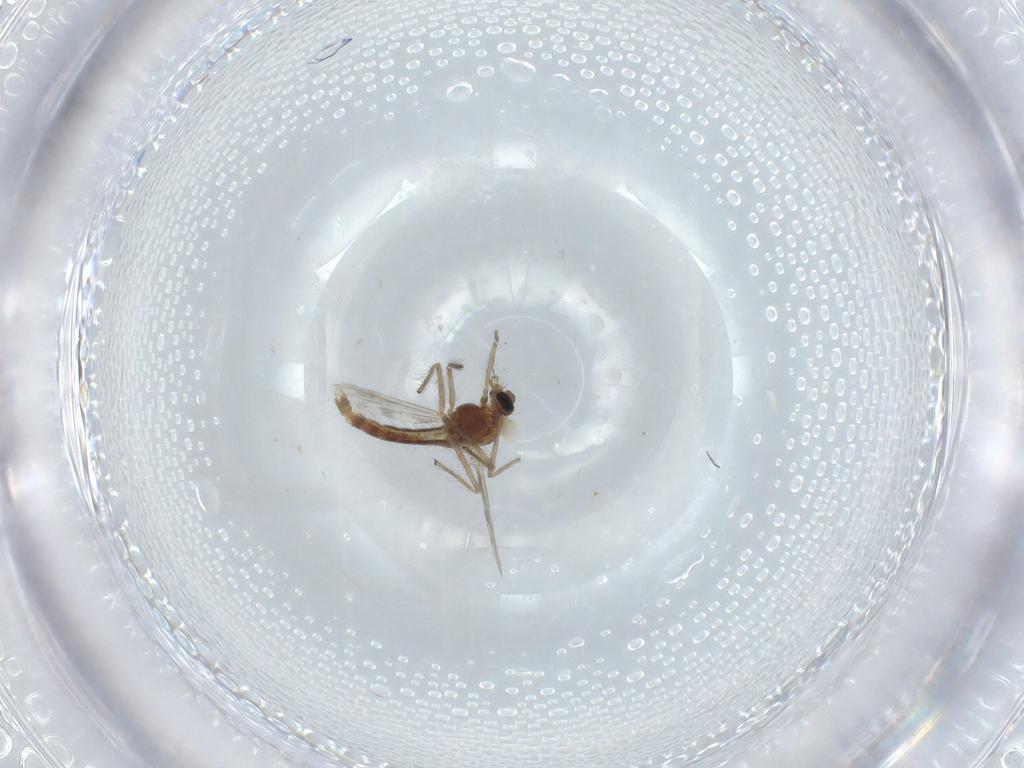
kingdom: Animalia
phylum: Arthropoda
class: Insecta
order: Diptera
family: Chironomidae
